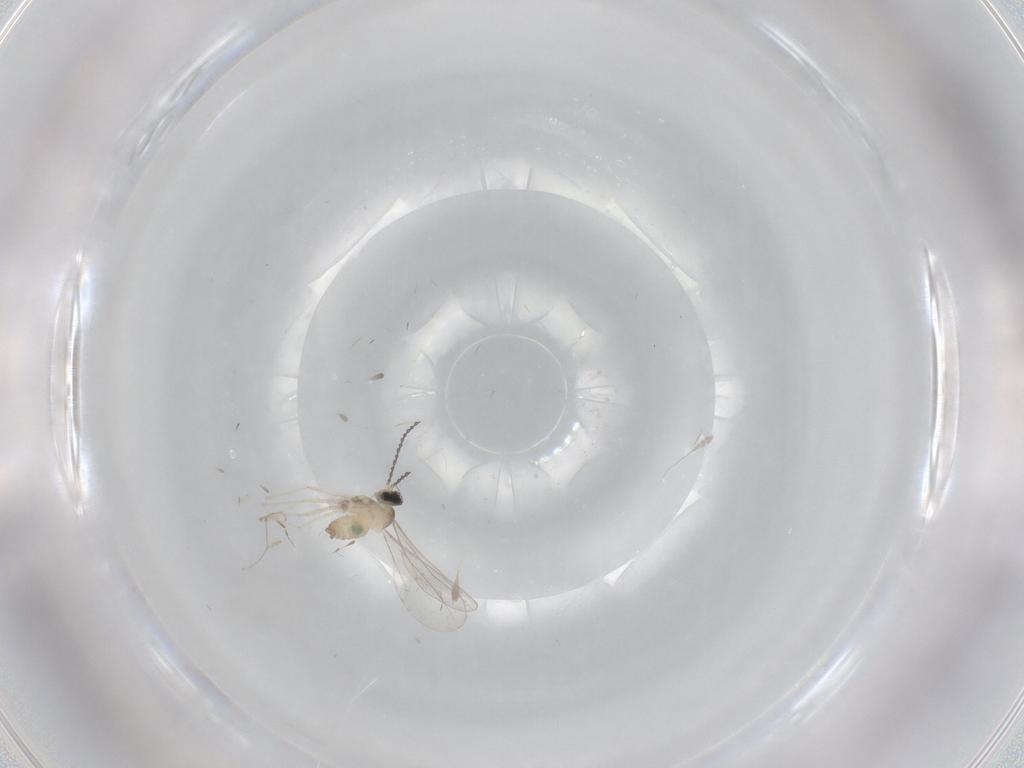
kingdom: Animalia
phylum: Arthropoda
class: Insecta
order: Diptera
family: Cecidomyiidae
